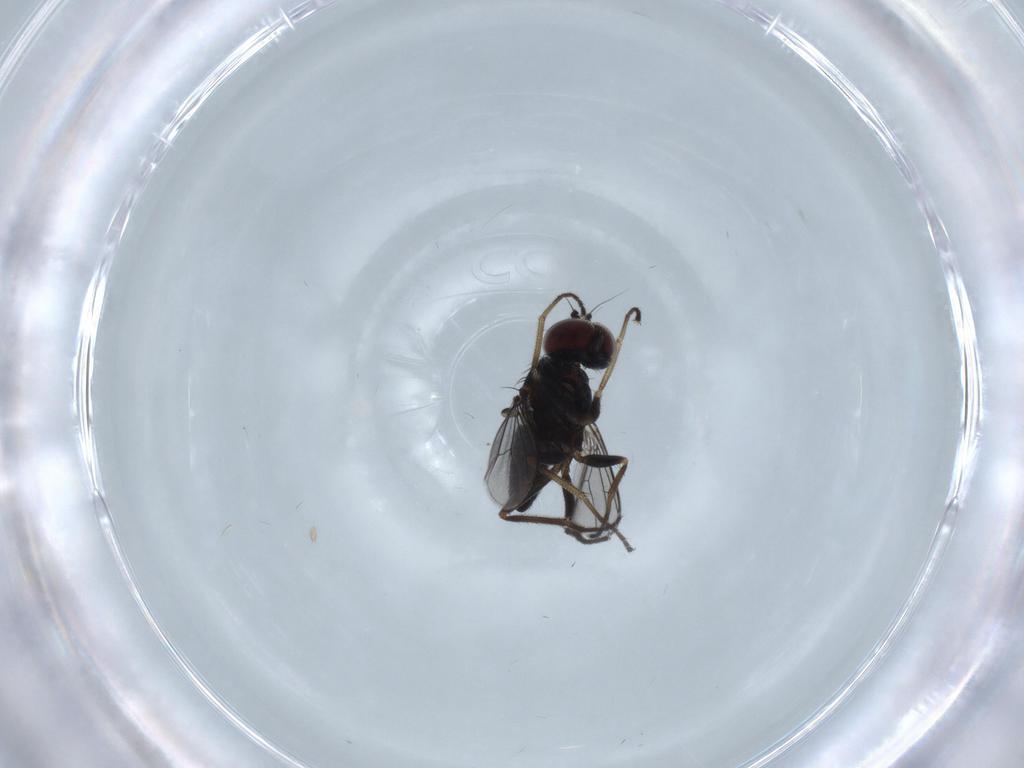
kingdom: Animalia
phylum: Arthropoda
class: Insecta
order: Diptera
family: Dolichopodidae
